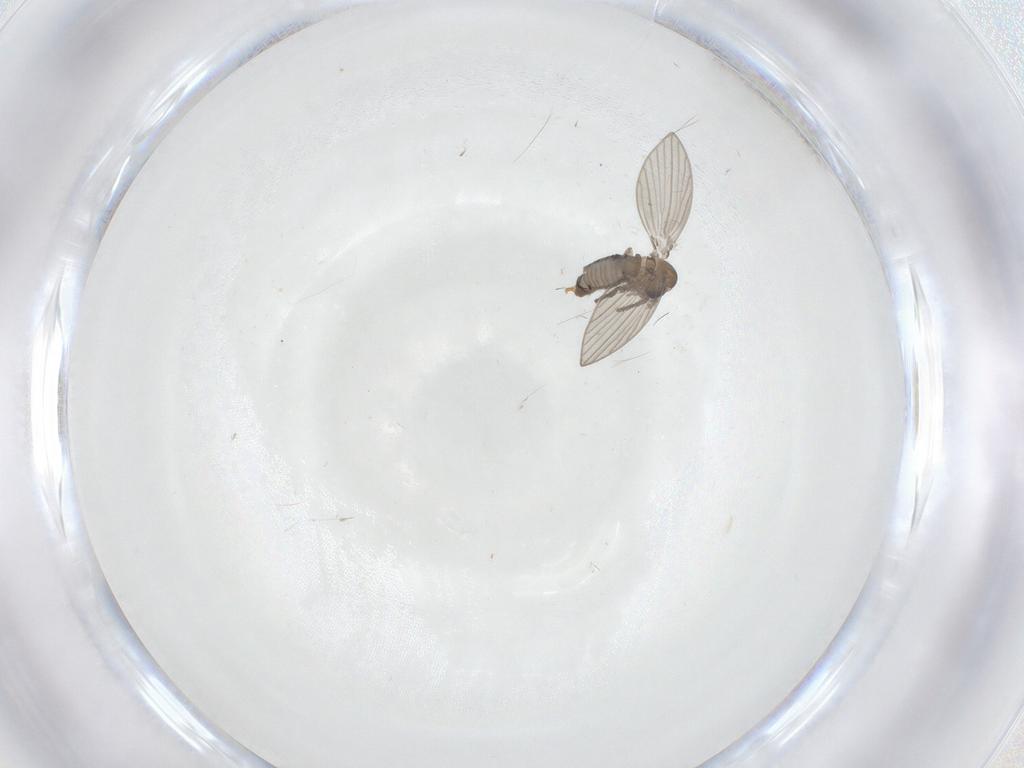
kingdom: Animalia
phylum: Arthropoda
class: Insecta
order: Diptera
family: Psychodidae
